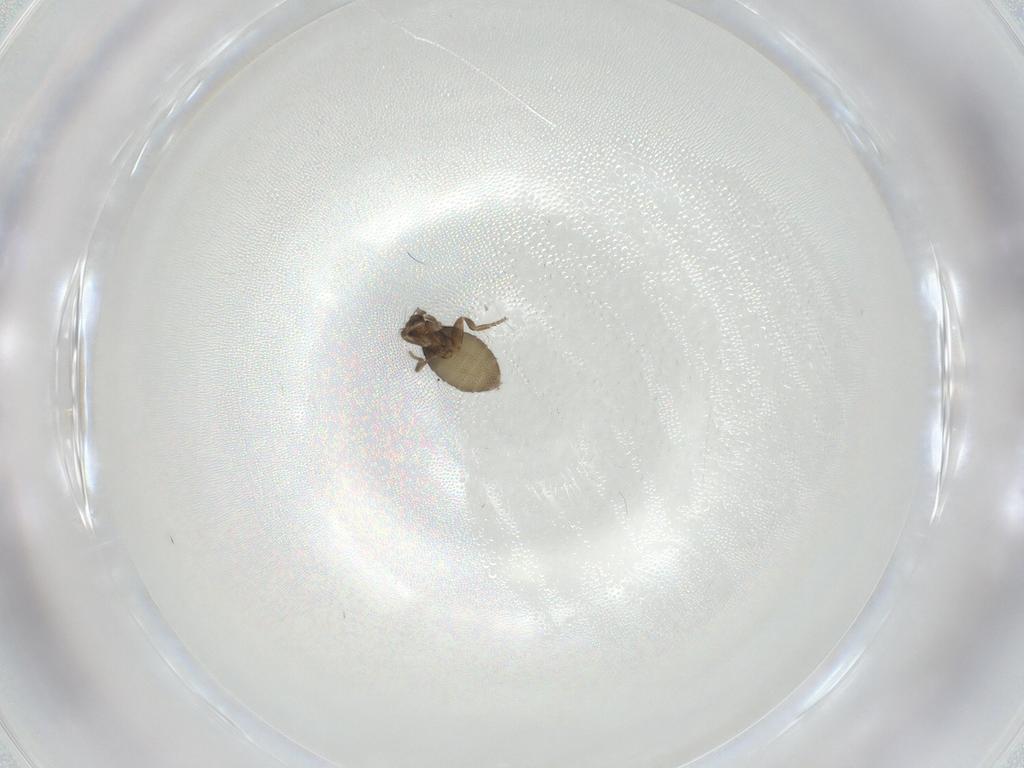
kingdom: Animalia
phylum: Arthropoda
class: Insecta
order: Diptera
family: Phoridae
